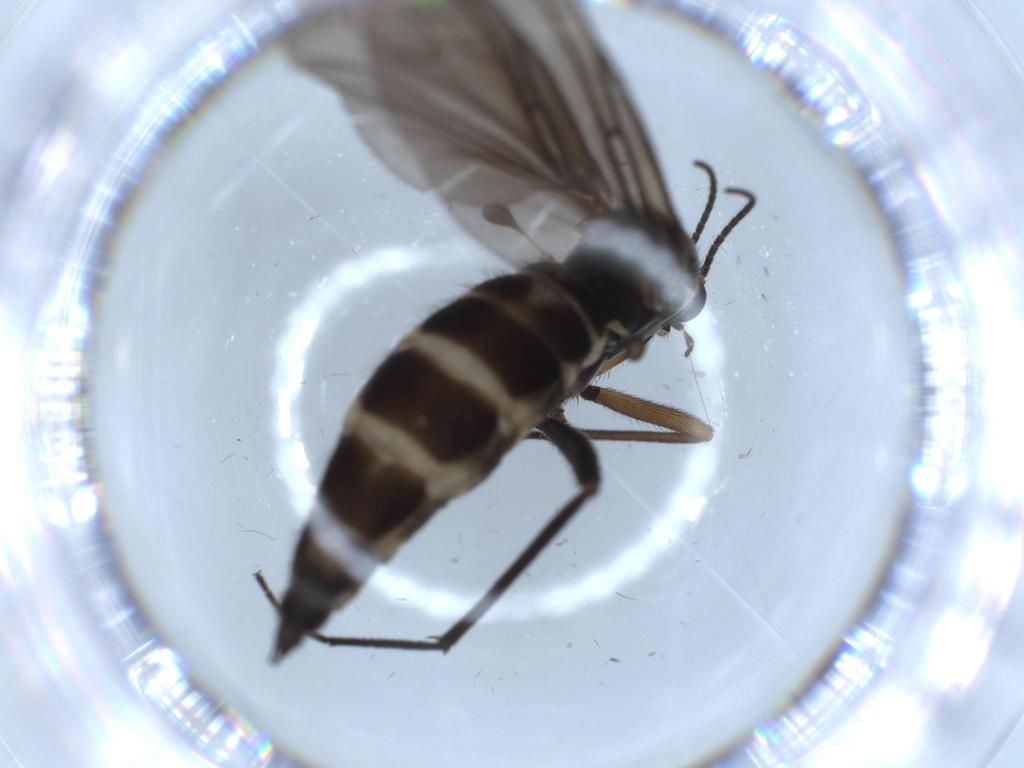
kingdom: Animalia
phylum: Arthropoda
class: Insecta
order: Diptera
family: Sciaridae
